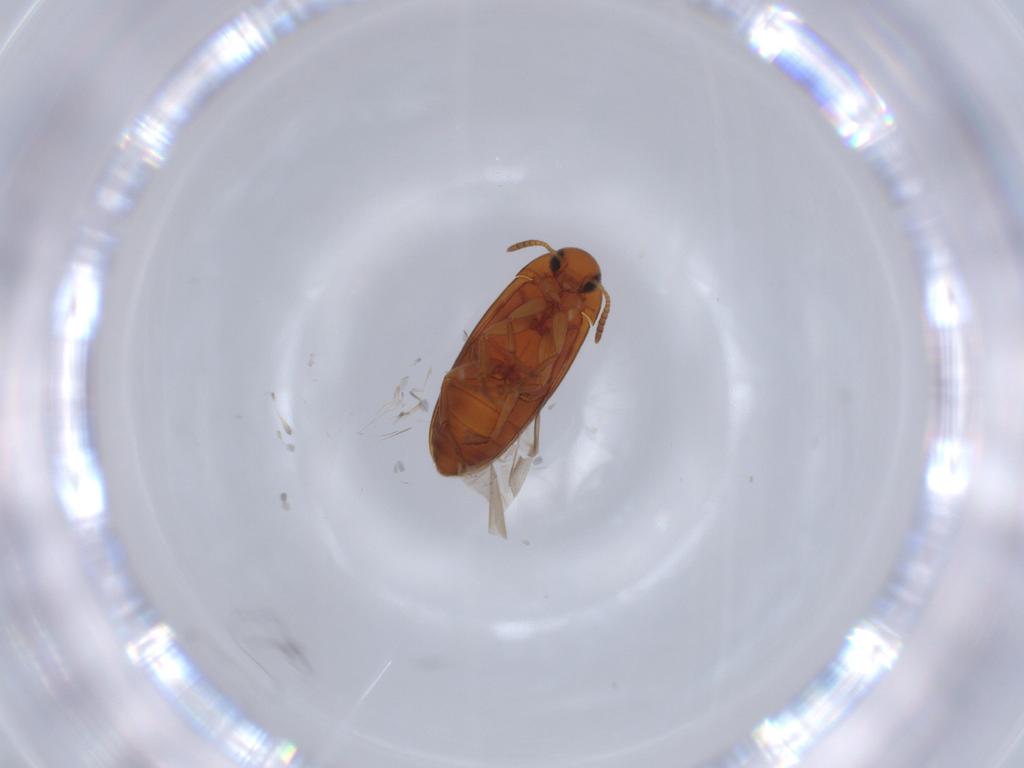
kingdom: Animalia
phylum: Arthropoda
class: Insecta
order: Coleoptera
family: Scraptiidae
